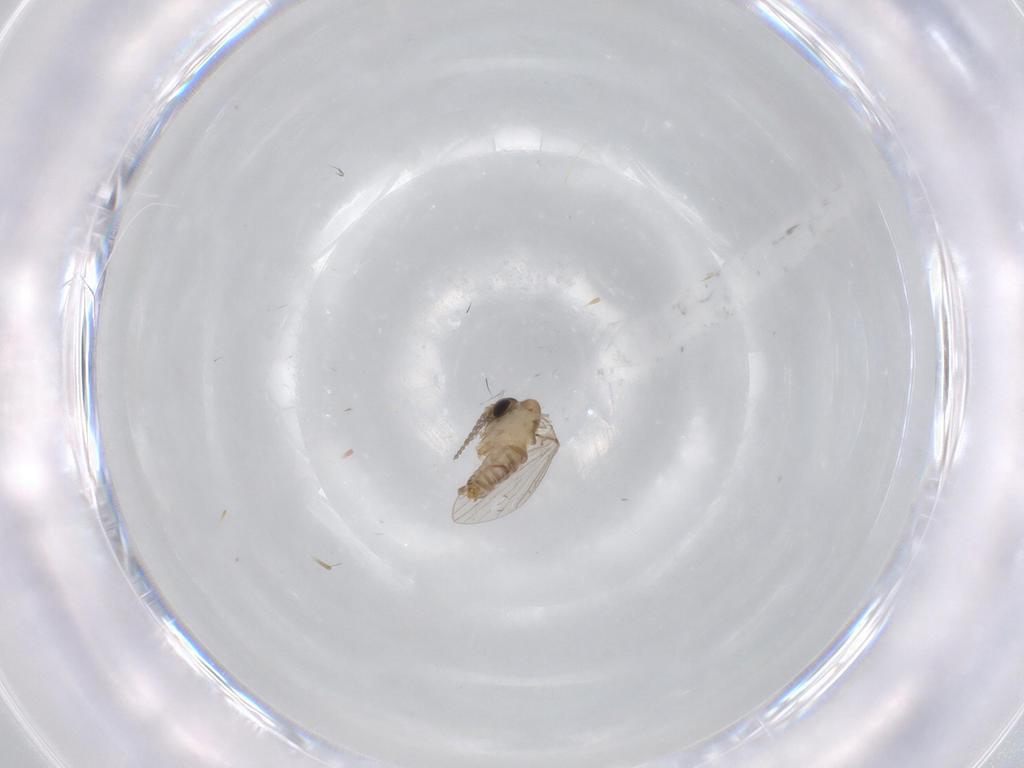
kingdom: Animalia
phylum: Arthropoda
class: Insecta
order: Diptera
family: Psychodidae
